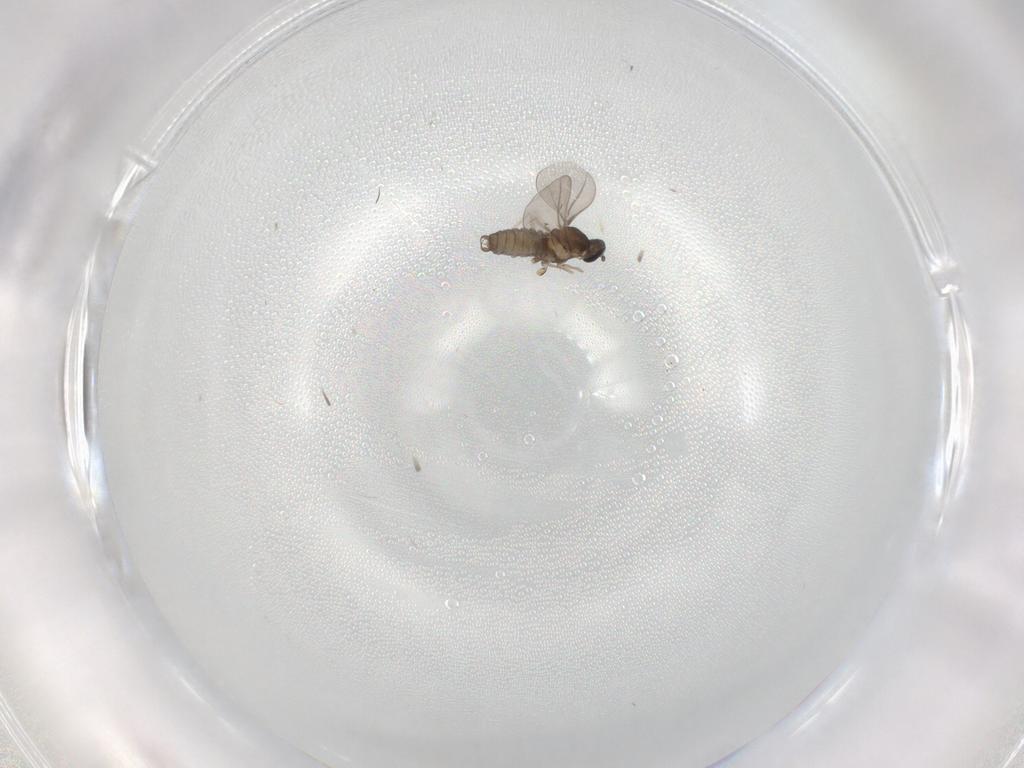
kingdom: Animalia
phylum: Arthropoda
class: Insecta
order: Diptera
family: Cecidomyiidae
